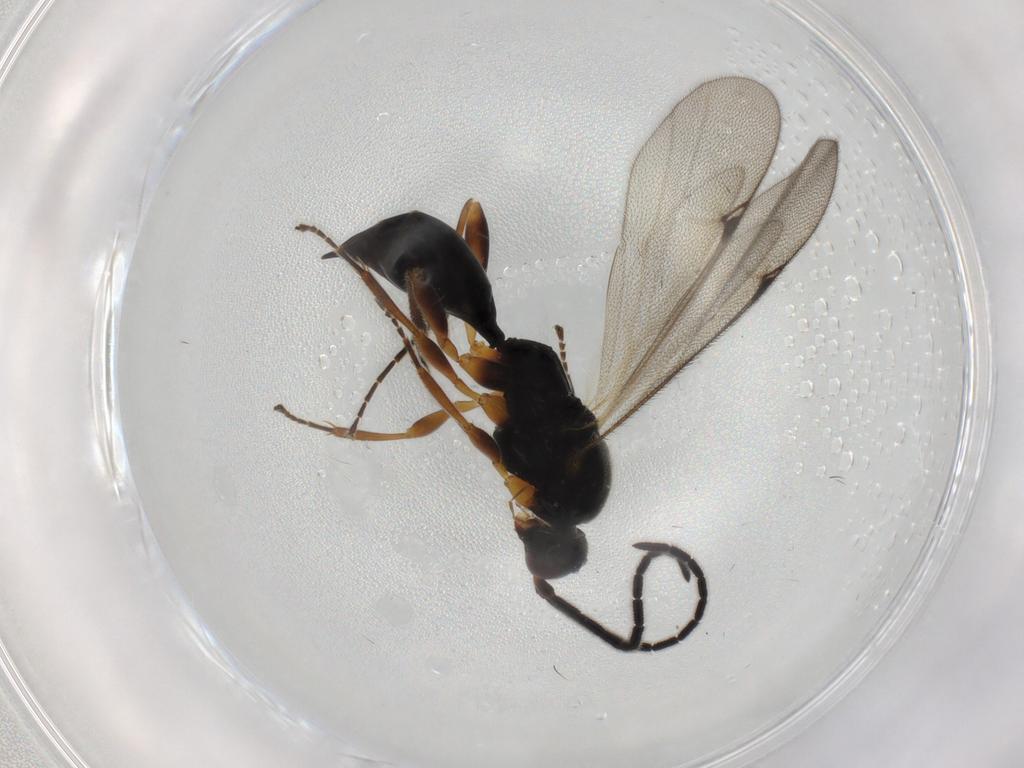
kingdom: Animalia
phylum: Arthropoda
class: Insecta
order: Hymenoptera
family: Proctotrupidae
